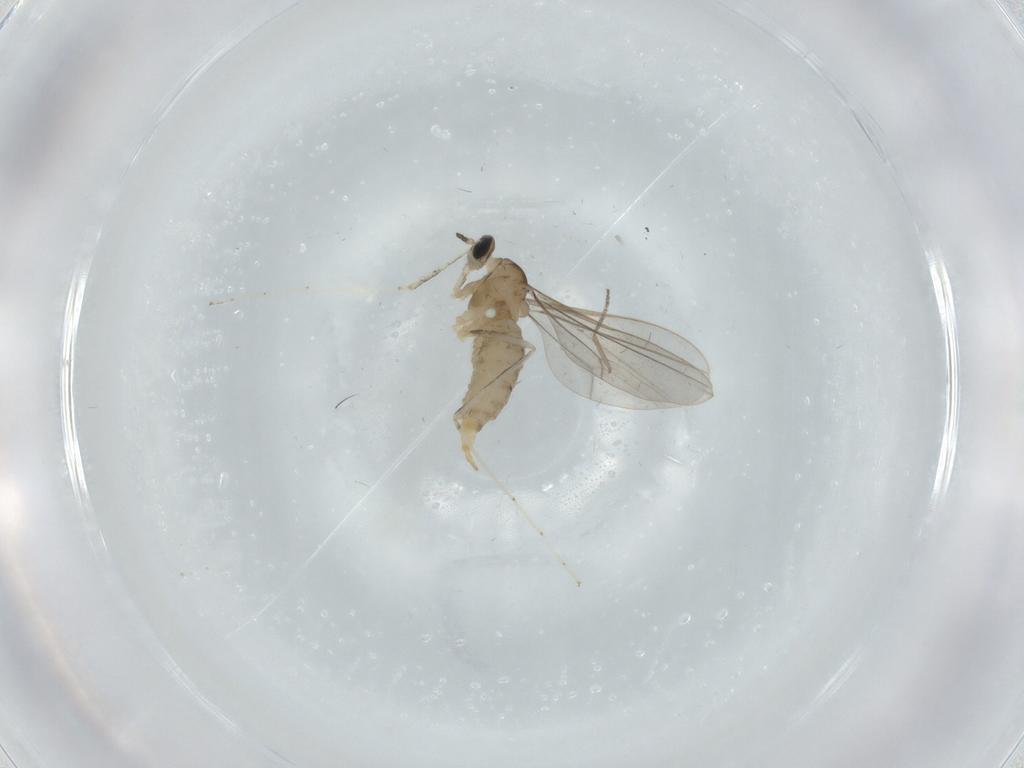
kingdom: Animalia
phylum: Arthropoda
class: Insecta
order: Diptera
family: Cecidomyiidae
